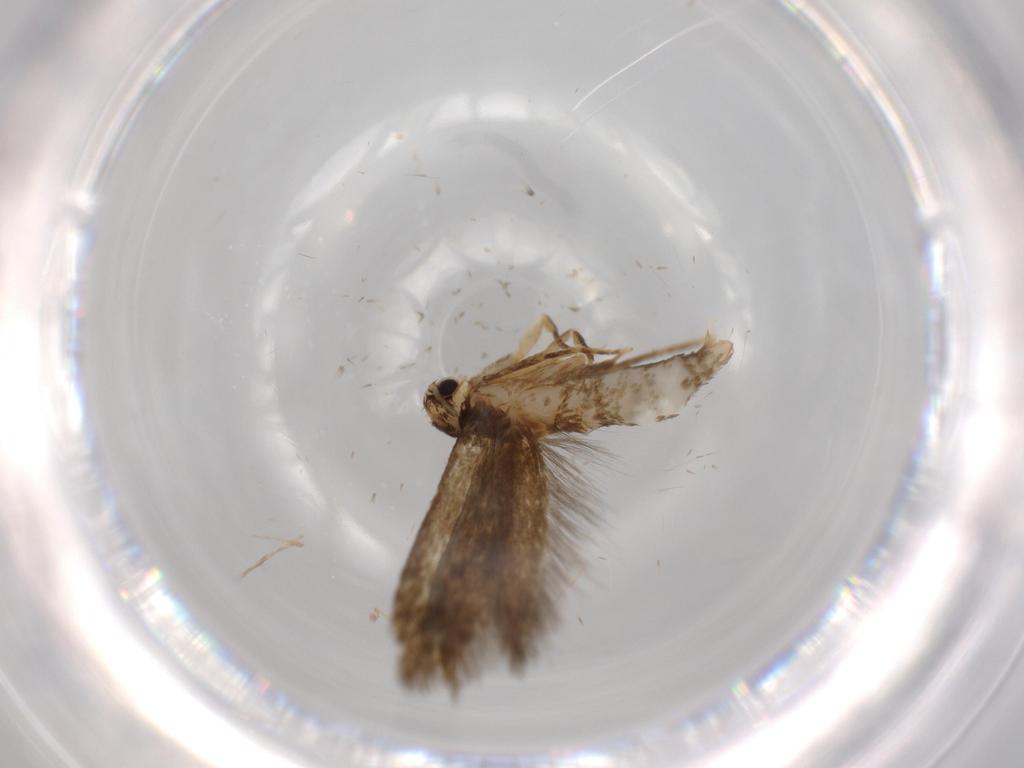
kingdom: Animalia
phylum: Arthropoda
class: Insecta
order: Lepidoptera
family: Tineidae
